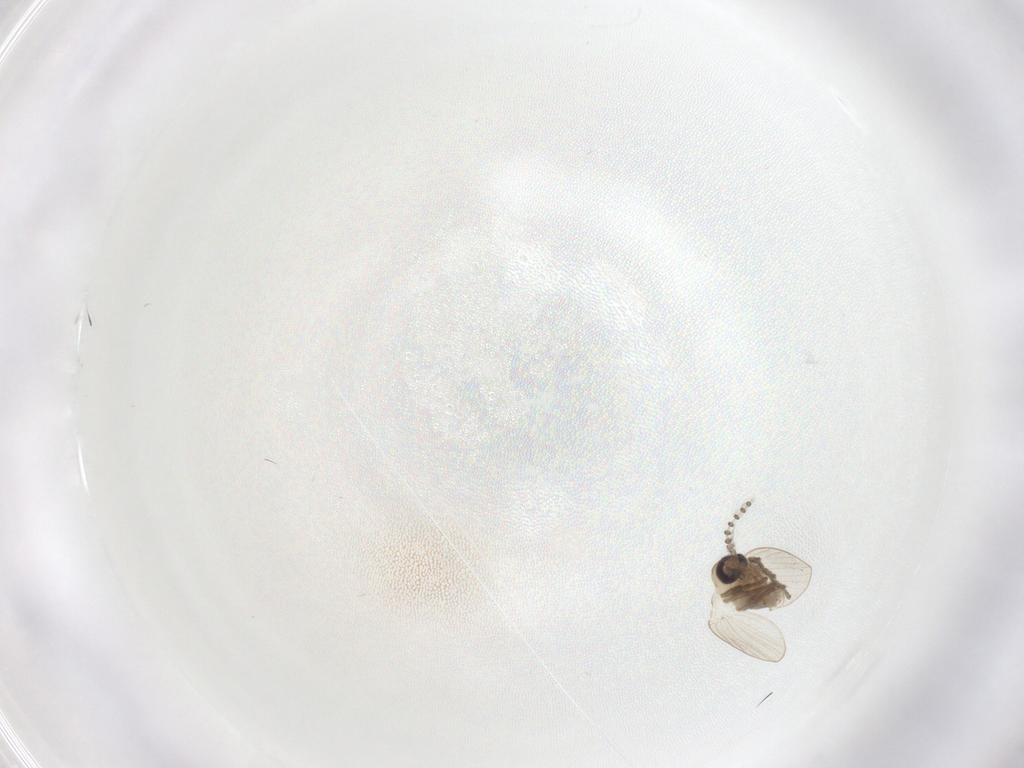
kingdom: Animalia
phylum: Arthropoda
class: Insecta
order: Diptera
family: Psychodidae
